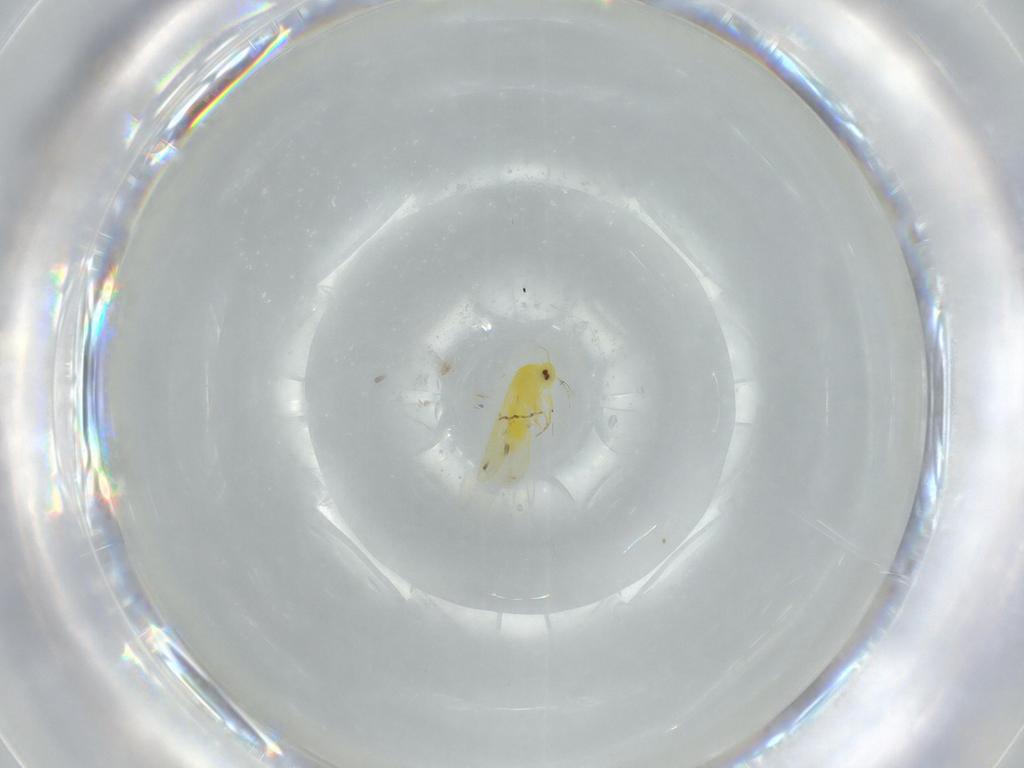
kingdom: Animalia
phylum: Arthropoda
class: Insecta
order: Hemiptera
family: Aleyrodidae
